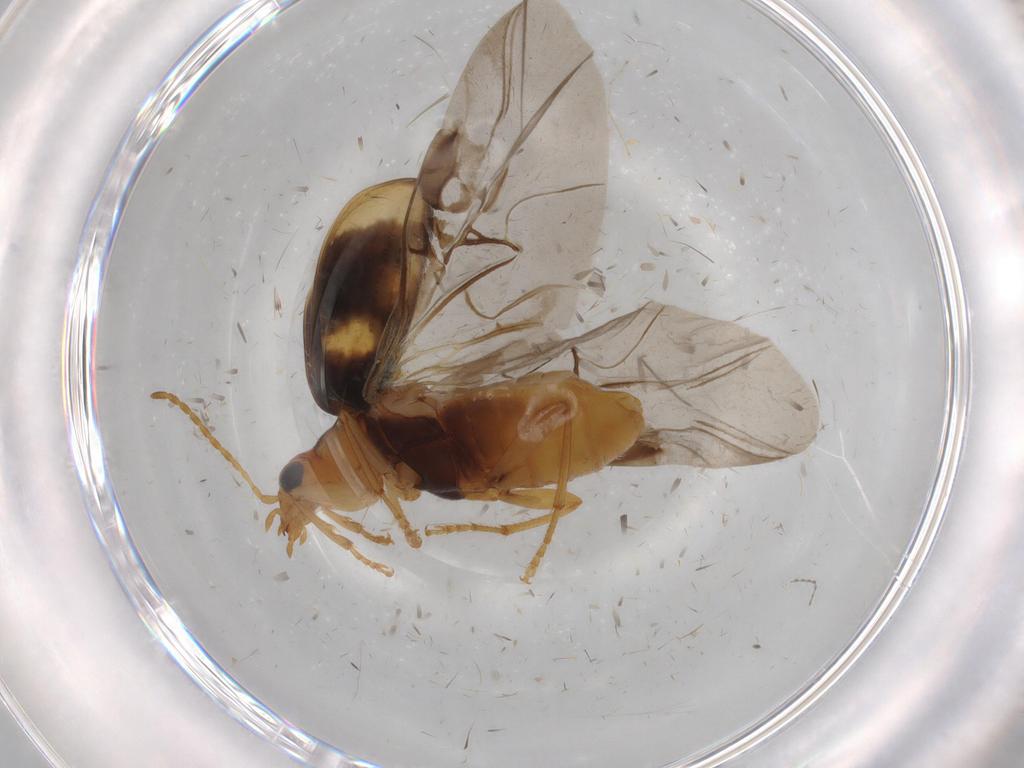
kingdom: Animalia
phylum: Arthropoda
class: Insecta
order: Coleoptera
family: Carabidae
